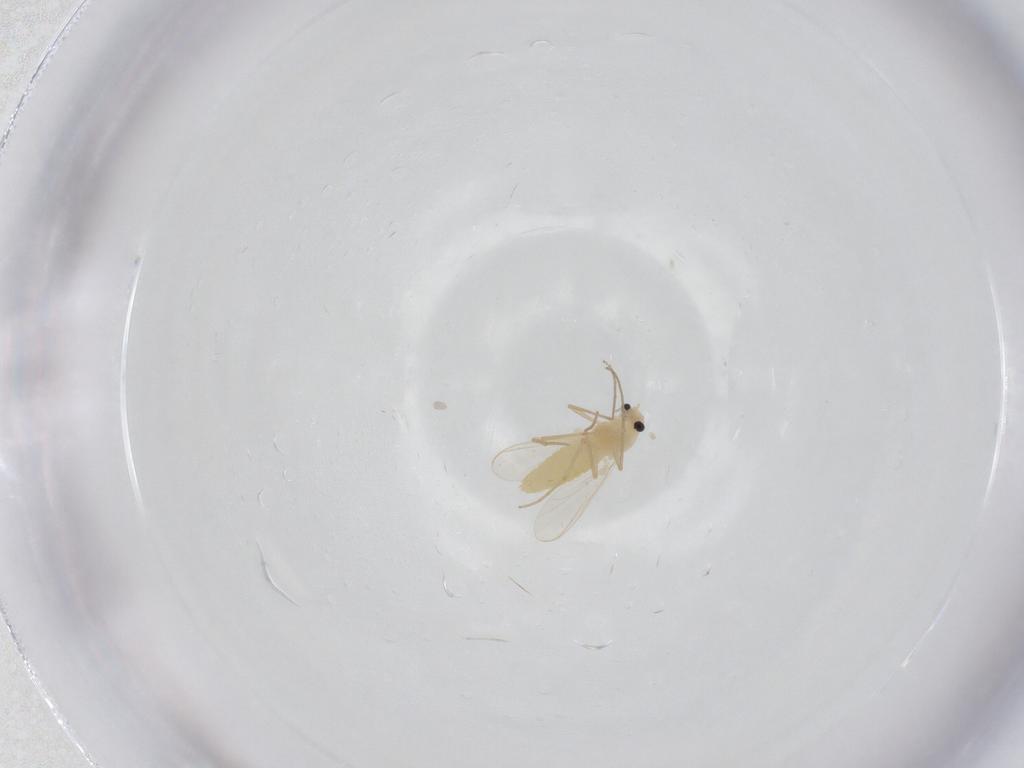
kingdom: Animalia
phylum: Arthropoda
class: Insecta
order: Diptera
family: Chironomidae
